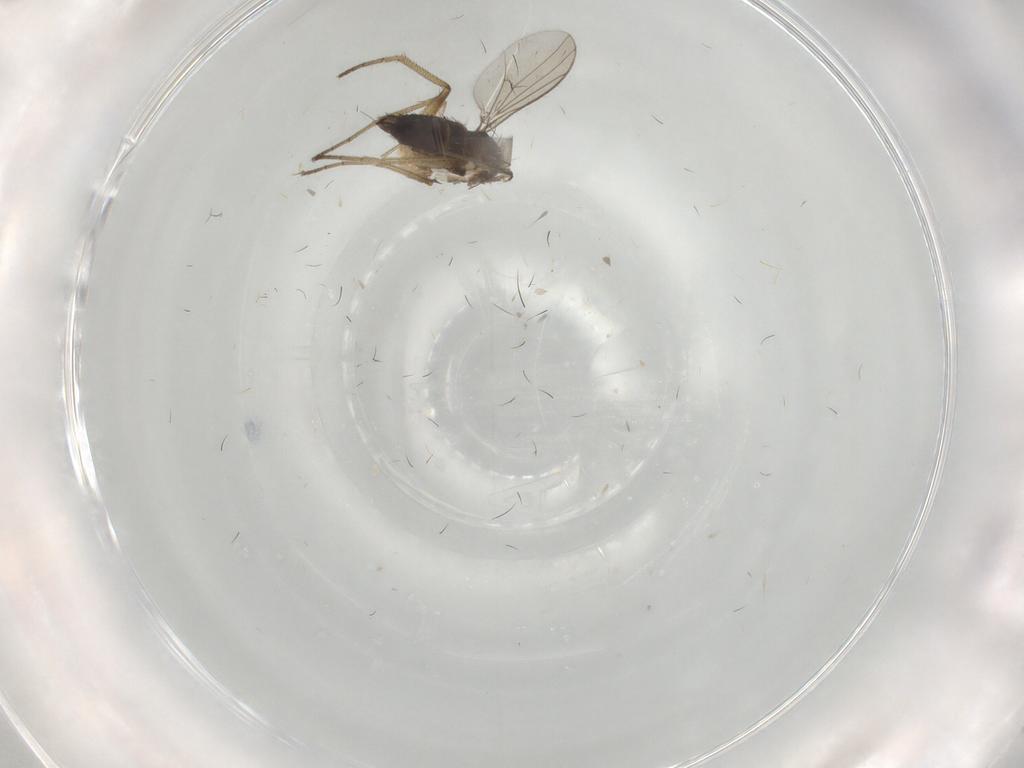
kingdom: Animalia
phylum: Arthropoda
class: Insecta
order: Diptera
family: Dolichopodidae
